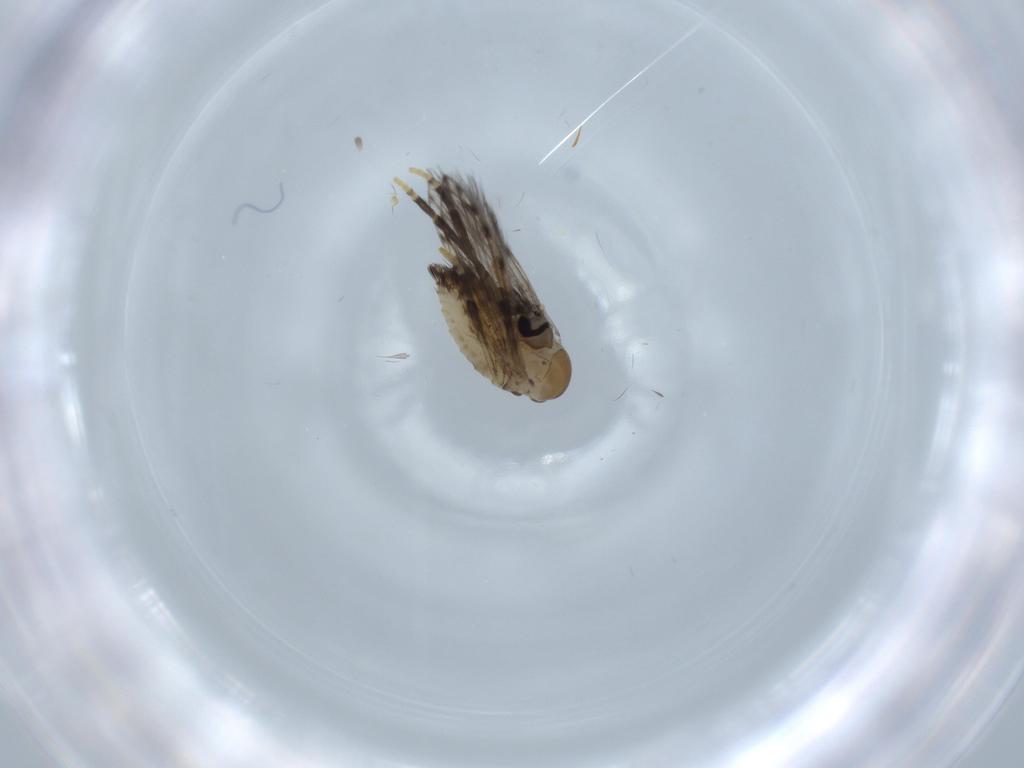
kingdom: Animalia
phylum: Arthropoda
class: Insecta
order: Diptera
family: Psychodidae
